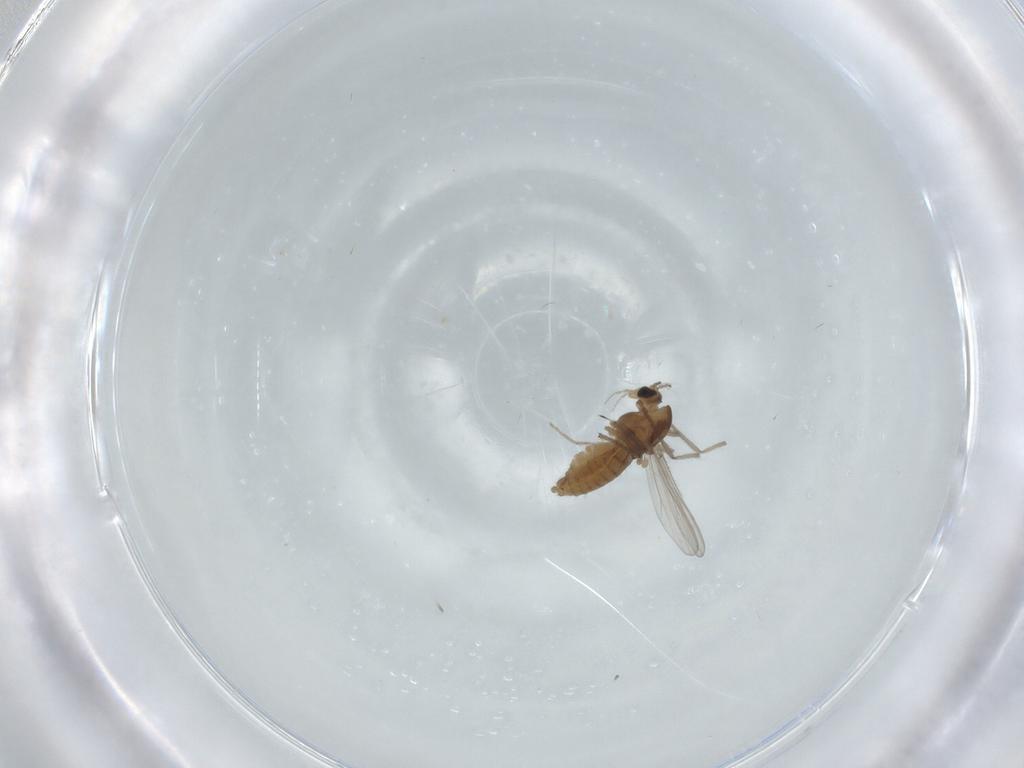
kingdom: Animalia
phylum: Arthropoda
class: Insecta
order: Diptera
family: Chironomidae
